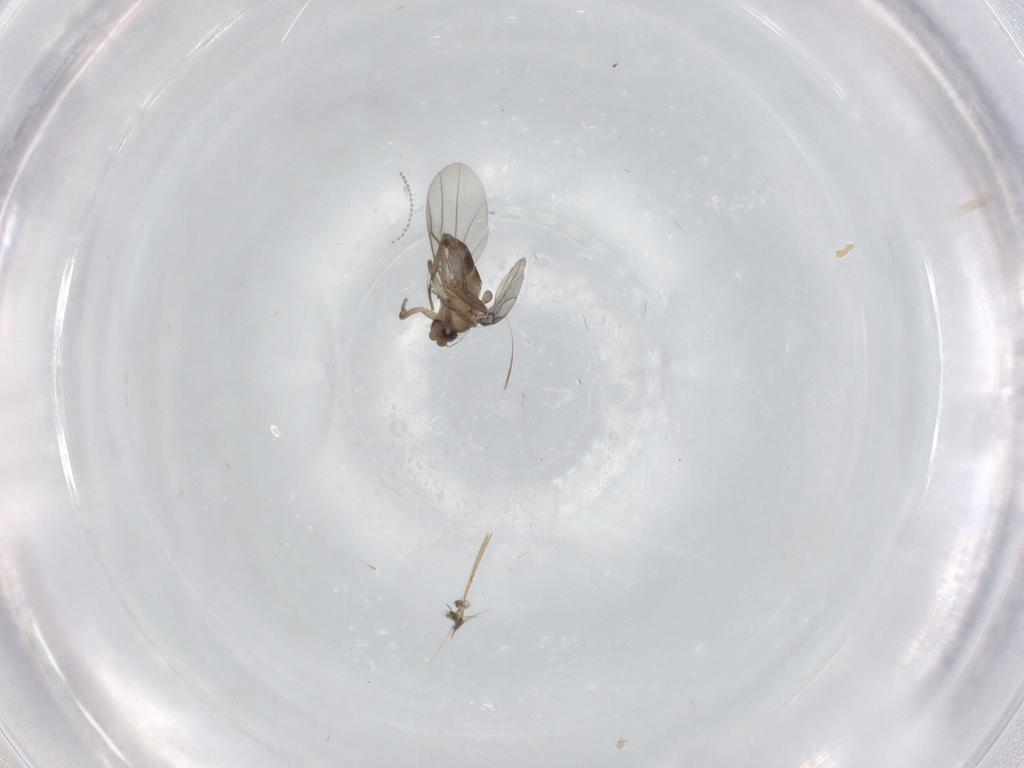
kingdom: Animalia
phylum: Arthropoda
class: Insecta
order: Diptera
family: Cecidomyiidae
